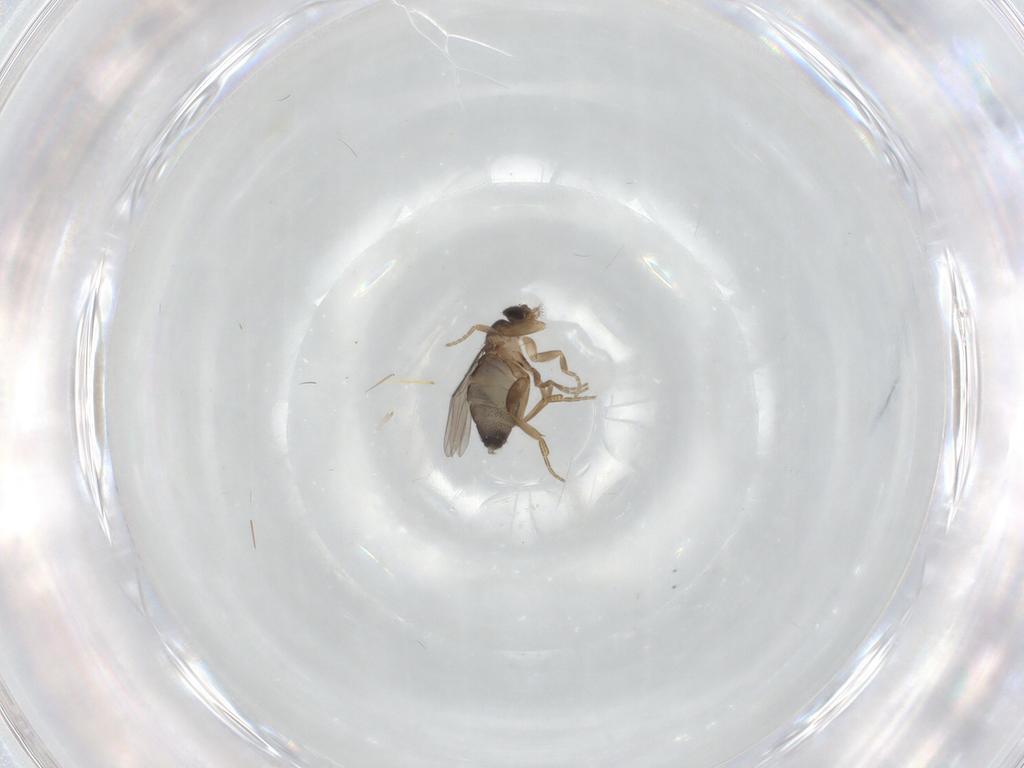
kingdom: Animalia
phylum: Arthropoda
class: Insecta
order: Diptera
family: Phoridae
